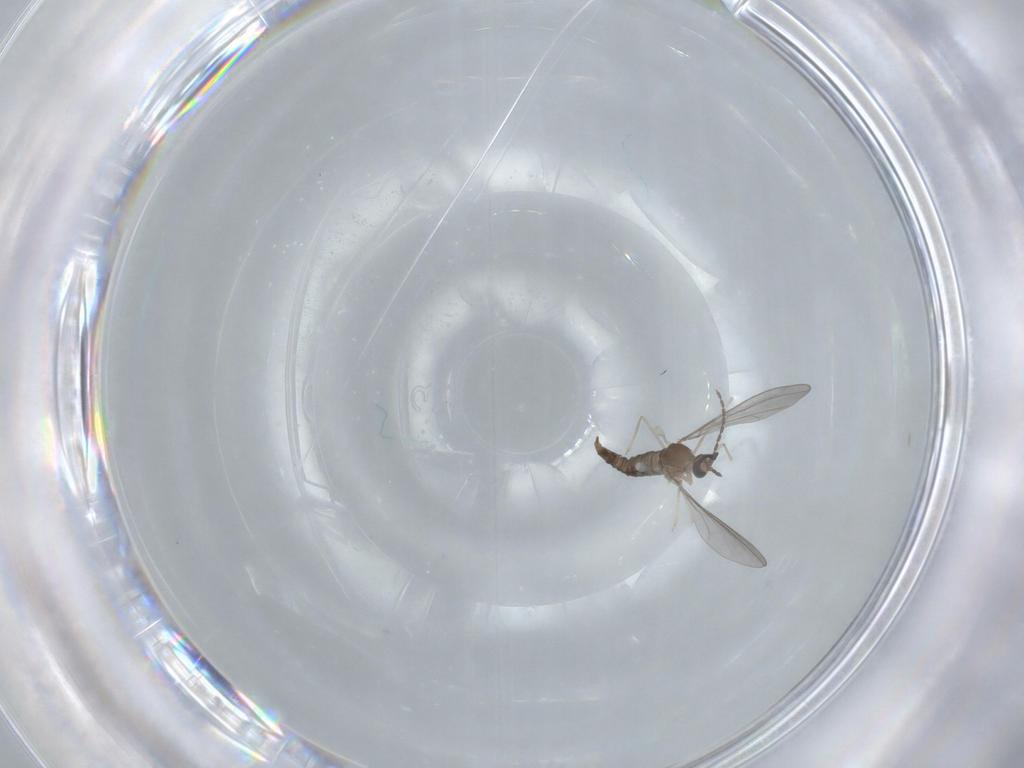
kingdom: Animalia
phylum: Arthropoda
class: Insecta
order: Diptera
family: Cecidomyiidae
